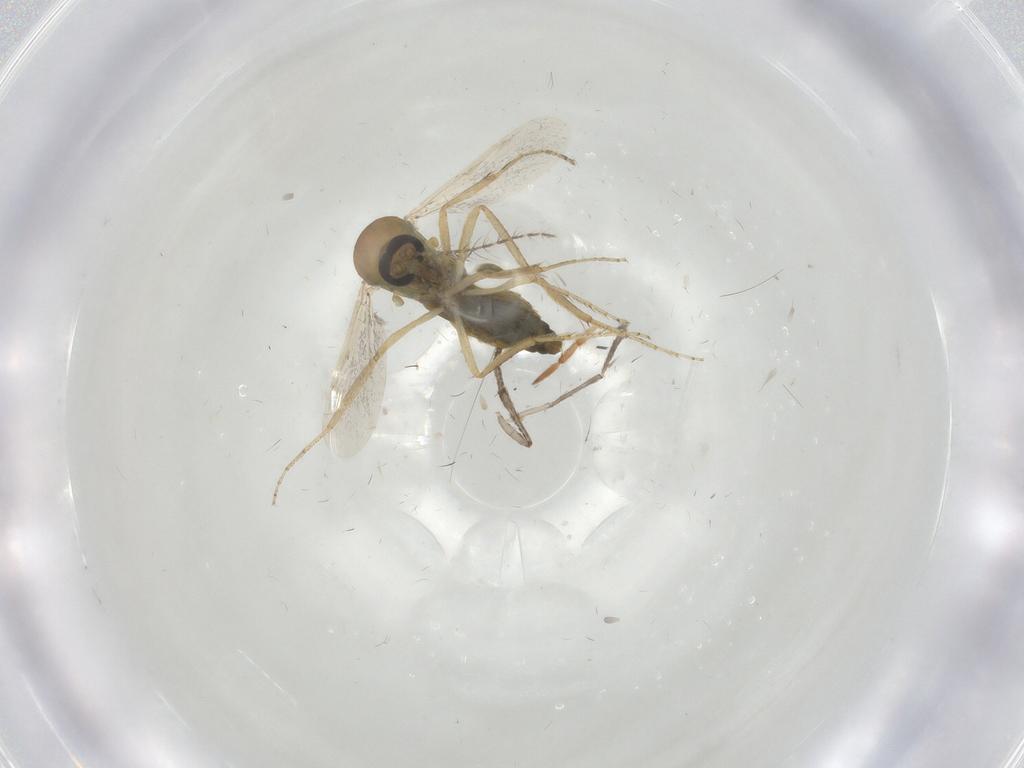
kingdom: Animalia
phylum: Arthropoda
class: Insecta
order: Diptera
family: Ceratopogonidae
